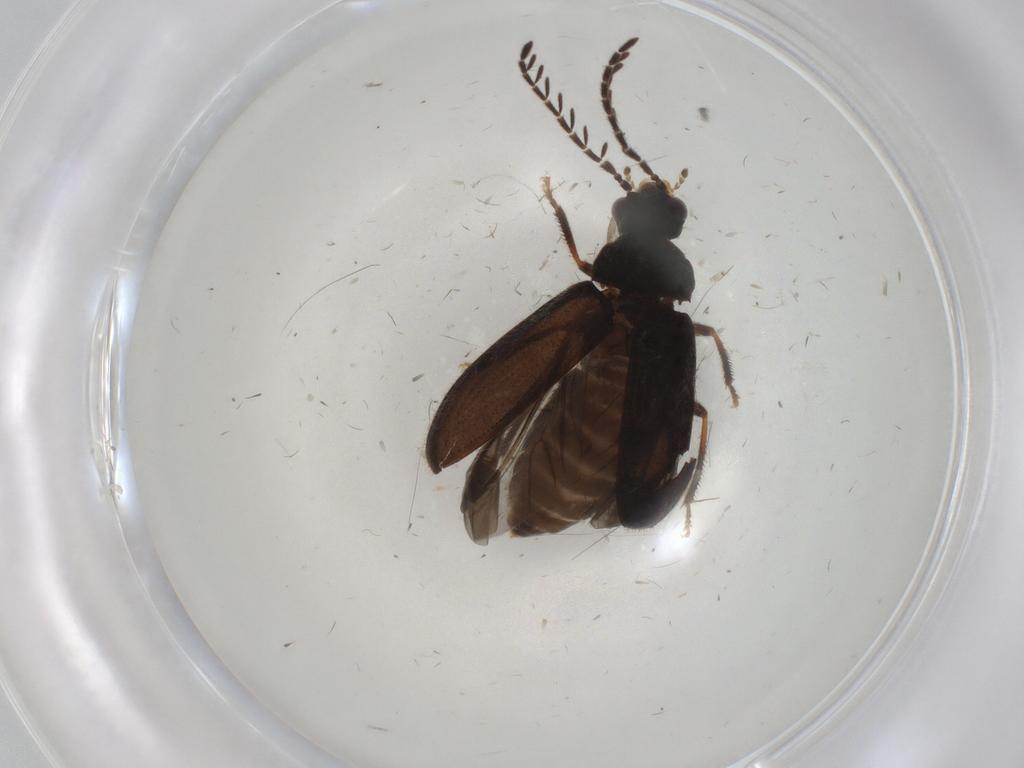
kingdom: Animalia
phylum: Arthropoda
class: Insecta
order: Coleoptera
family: Ptilodactylidae
